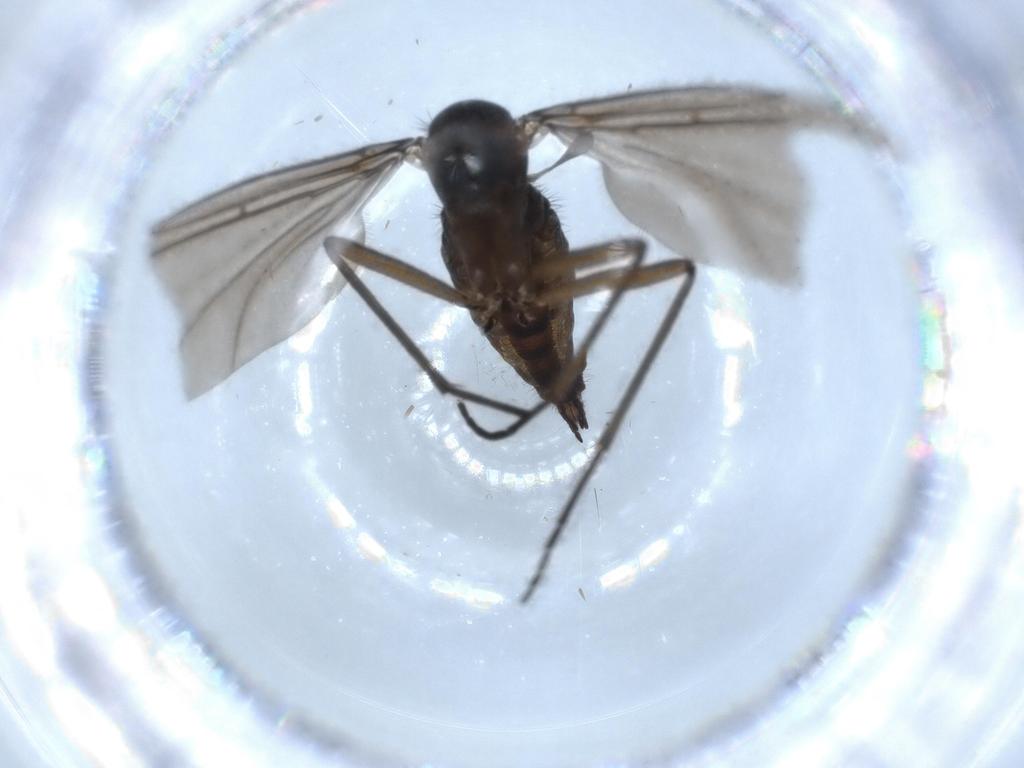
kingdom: Animalia
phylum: Arthropoda
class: Insecta
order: Diptera
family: Sciaridae
